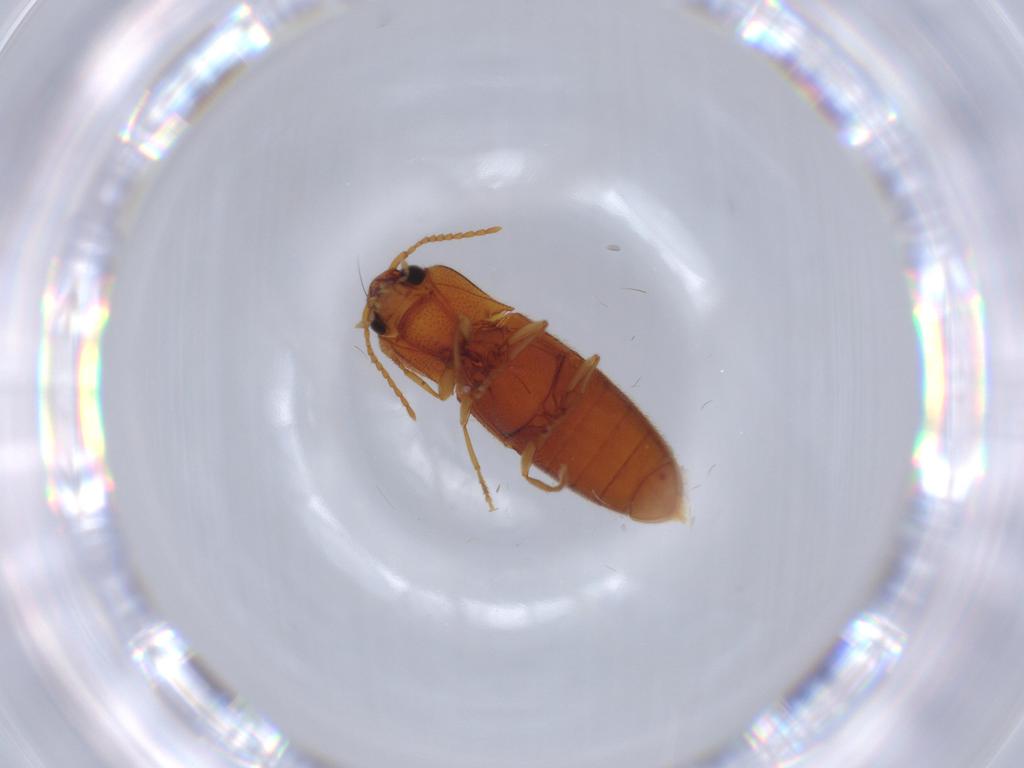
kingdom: Animalia
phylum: Arthropoda
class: Insecta
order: Coleoptera
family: Elateridae
